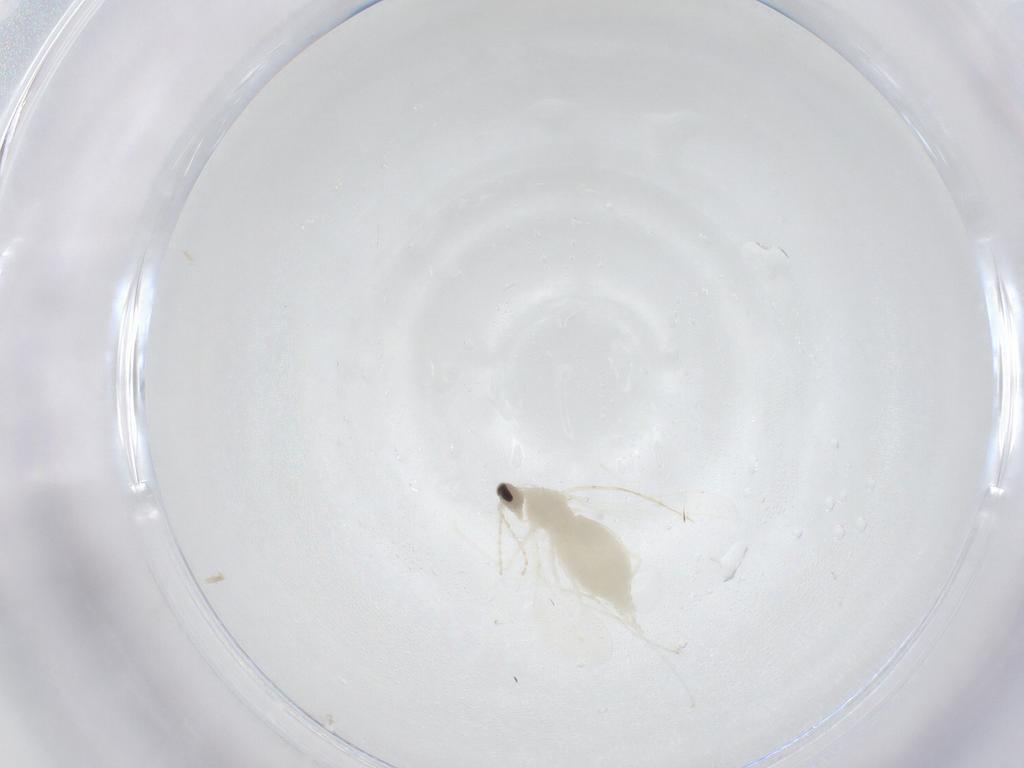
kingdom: Animalia
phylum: Arthropoda
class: Insecta
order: Diptera
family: Cecidomyiidae
